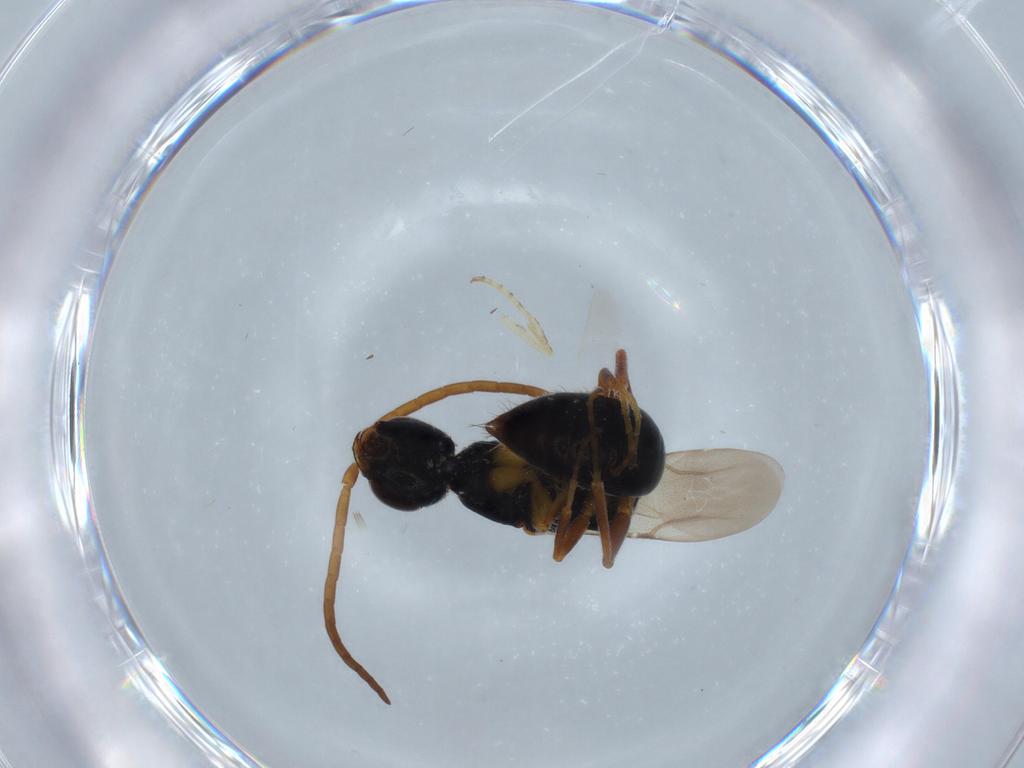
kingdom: Animalia
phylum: Arthropoda
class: Insecta
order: Hymenoptera
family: Bethylidae
